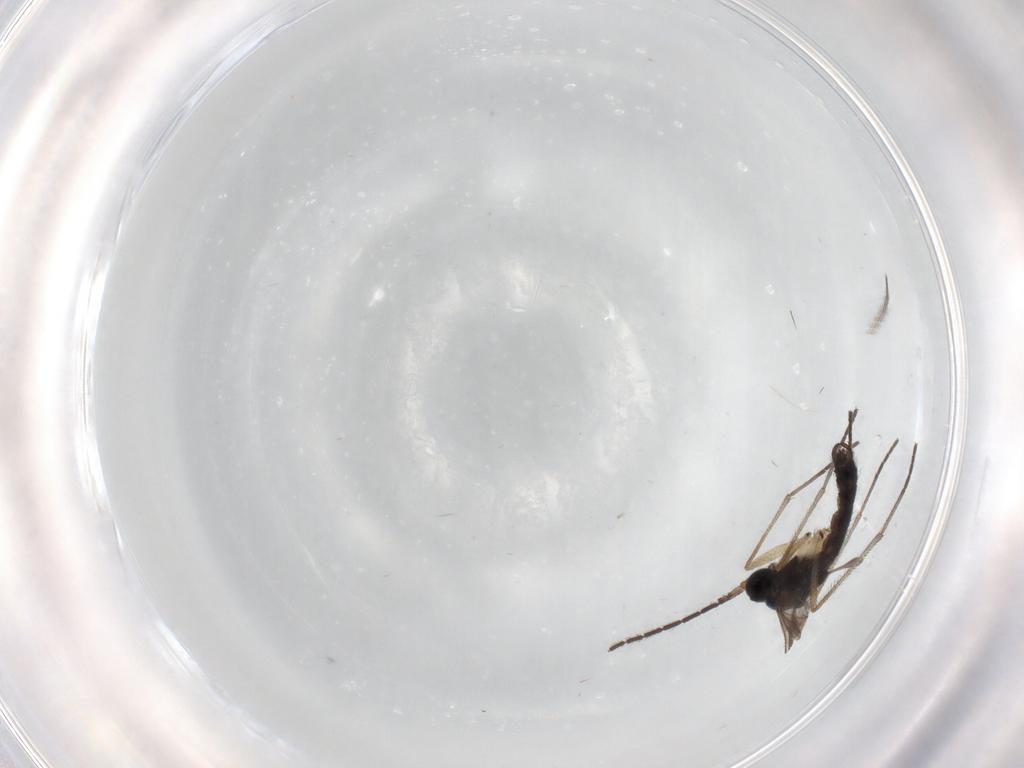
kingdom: Animalia
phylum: Arthropoda
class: Insecta
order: Diptera
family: Sciaridae
